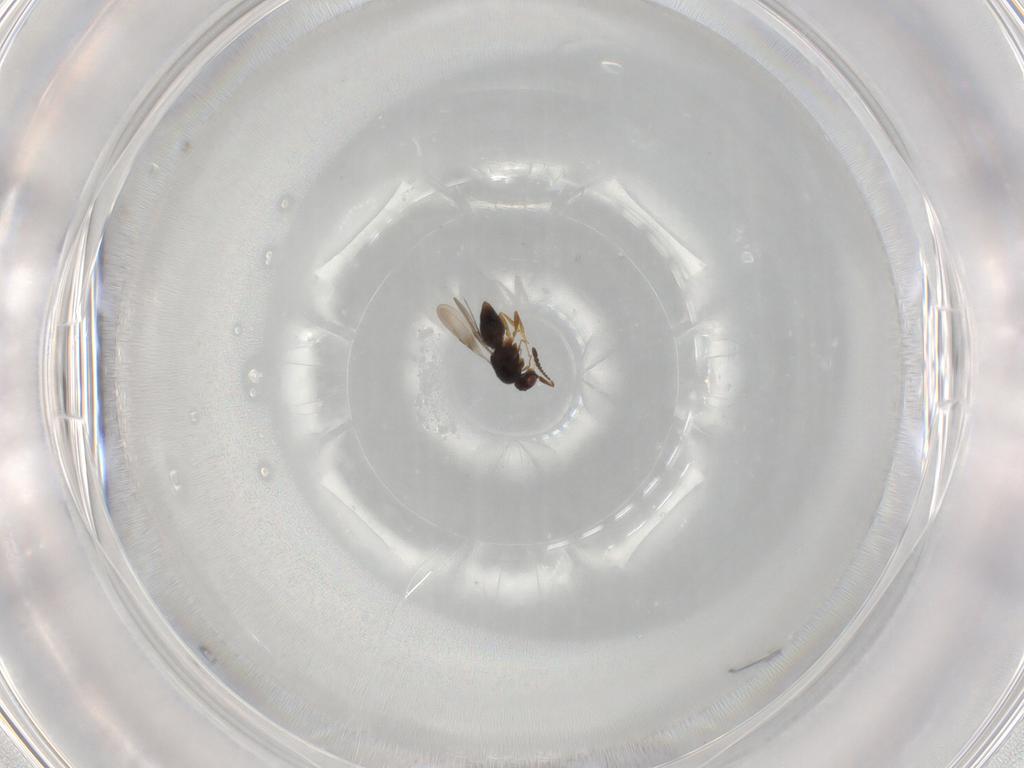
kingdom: Animalia
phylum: Arthropoda
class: Insecta
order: Hymenoptera
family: Ceraphronidae
